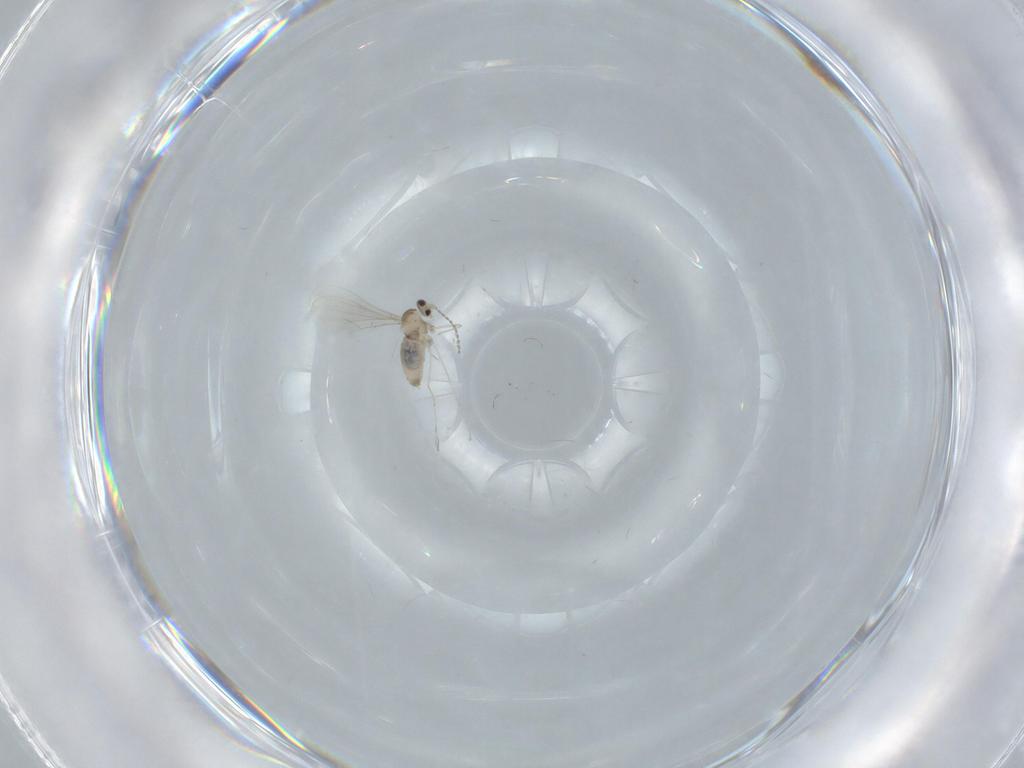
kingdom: Animalia
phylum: Arthropoda
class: Insecta
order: Diptera
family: Cecidomyiidae
